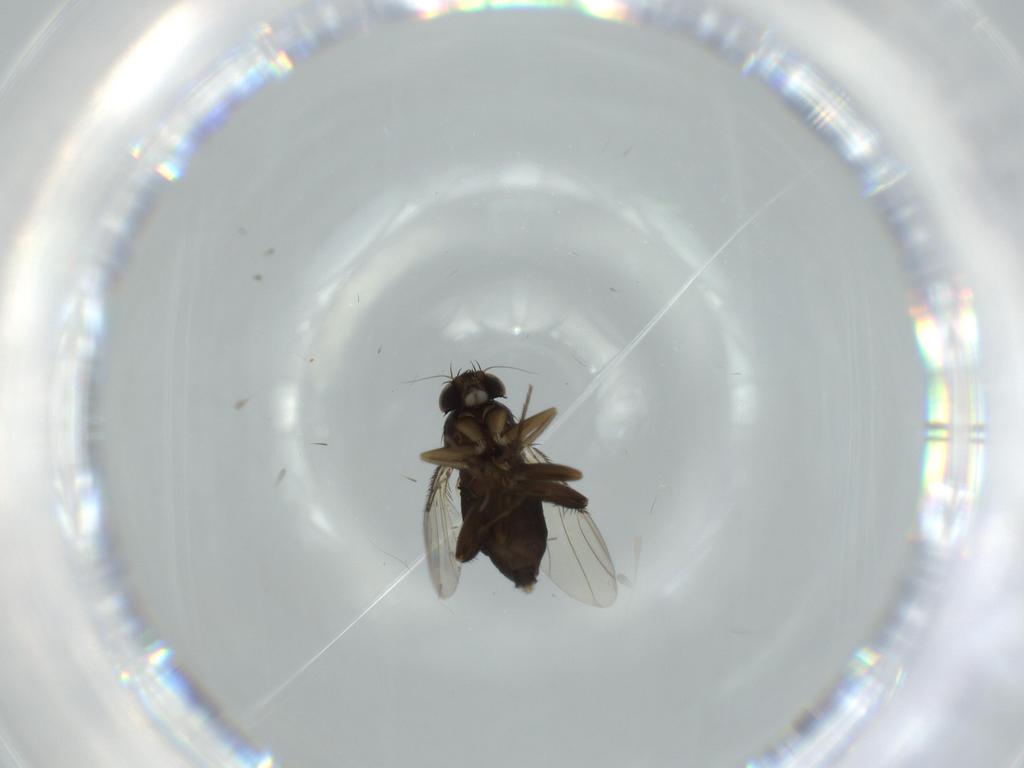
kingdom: Animalia
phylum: Arthropoda
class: Insecta
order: Diptera
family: Phoridae
